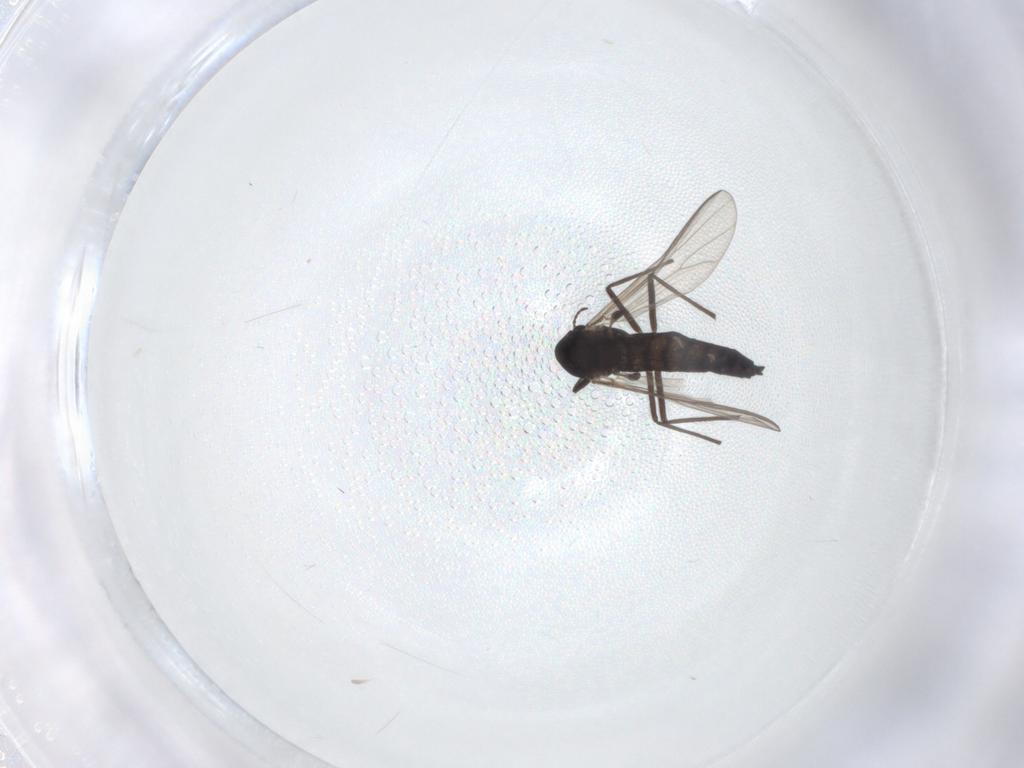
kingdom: Animalia
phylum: Arthropoda
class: Insecta
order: Diptera
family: Chironomidae
